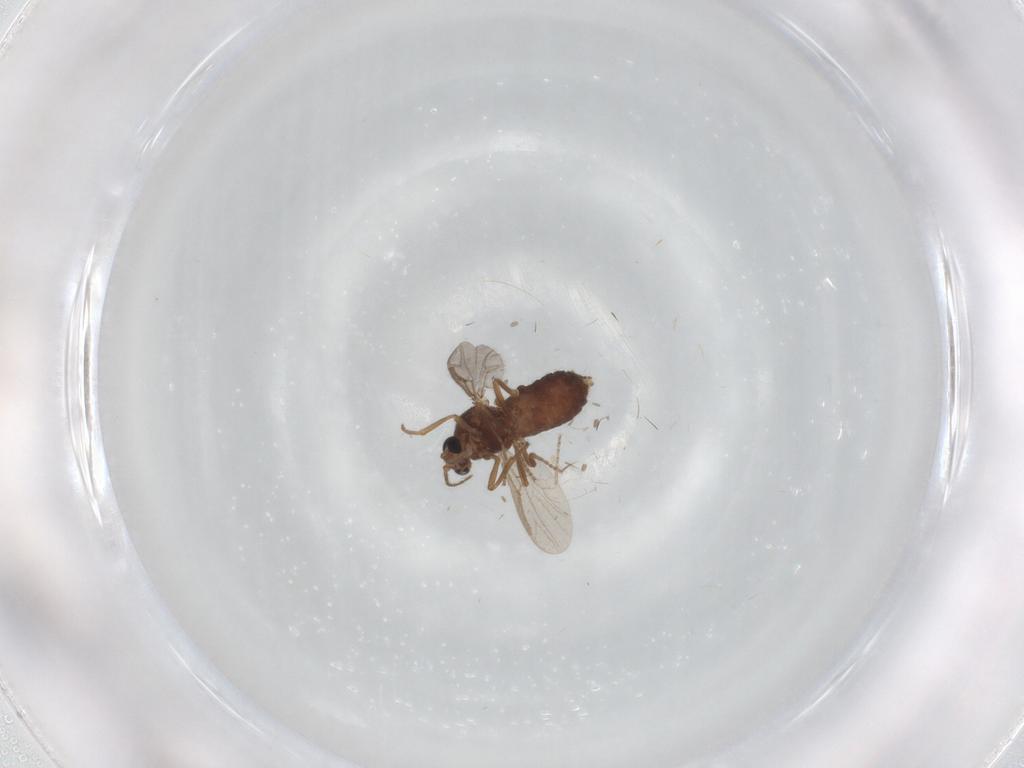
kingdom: Animalia
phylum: Arthropoda
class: Insecta
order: Diptera
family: Ceratopogonidae
